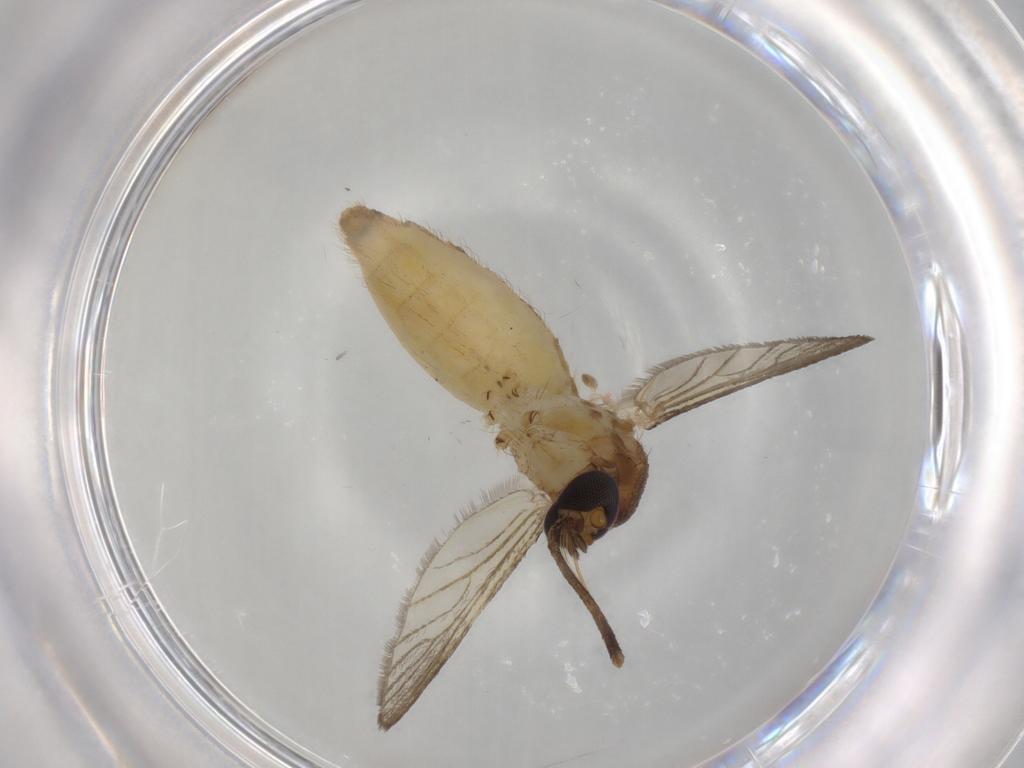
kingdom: Animalia
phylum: Arthropoda
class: Insecta
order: Diptera
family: Culicidae
